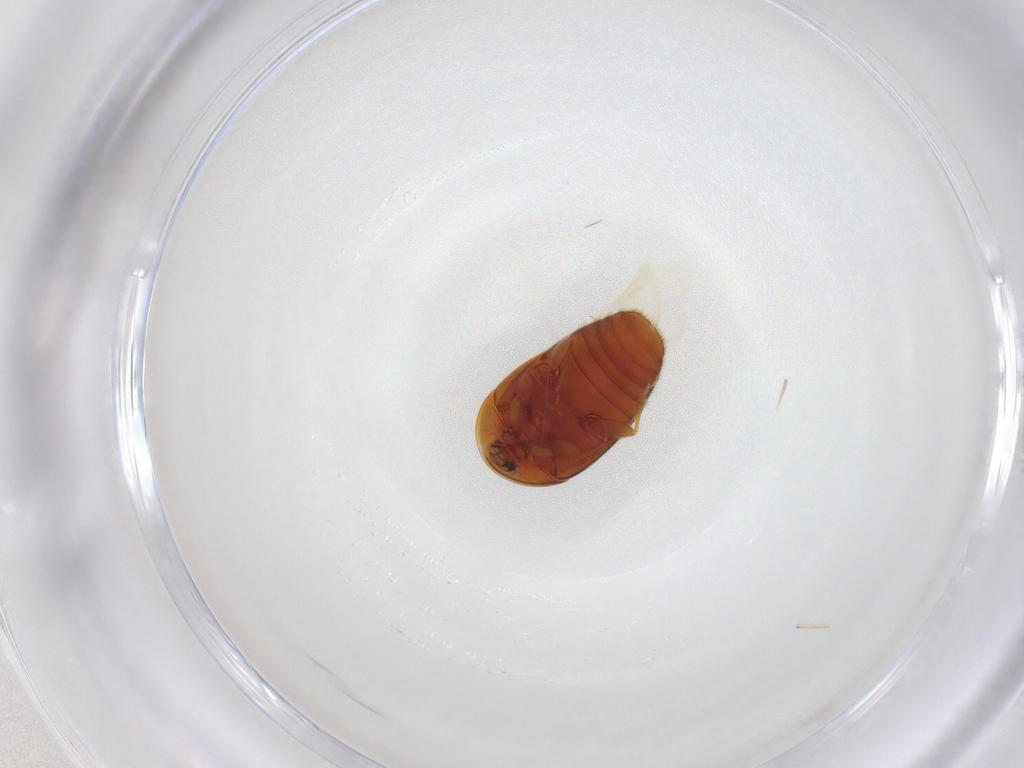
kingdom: Animalia
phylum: Arthropoda
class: Insecta
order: Coleoptera
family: Corylophidae
